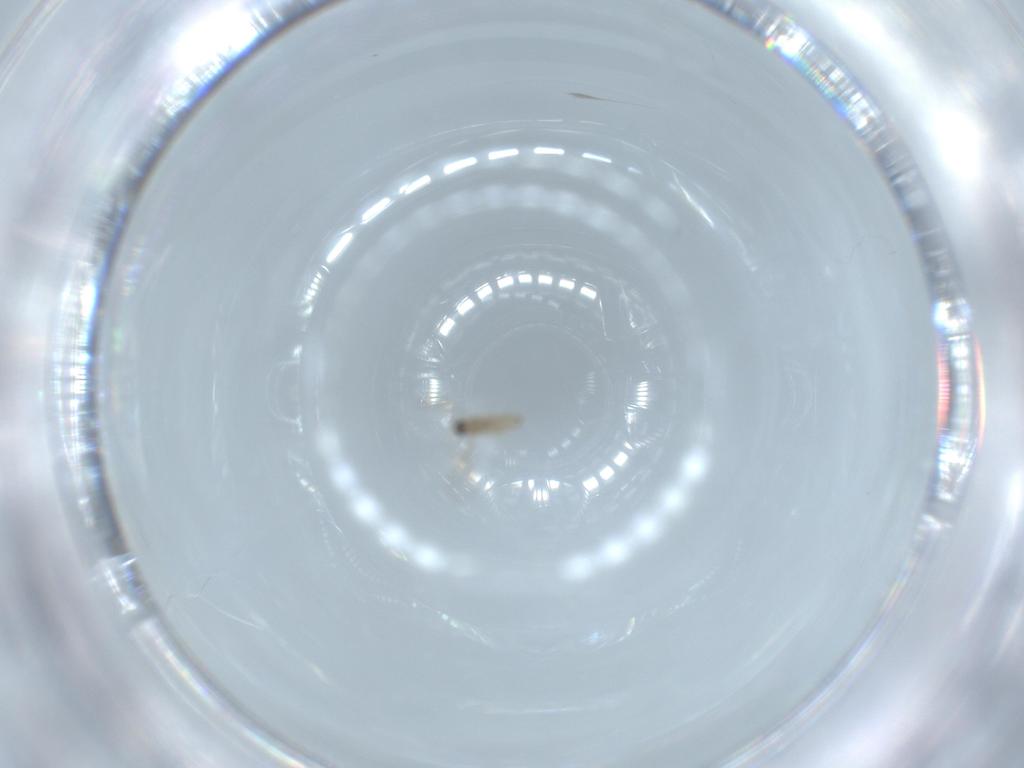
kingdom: Animalia
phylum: Arthropoda
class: Insecta
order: Diptera
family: Cecidomyiidae
